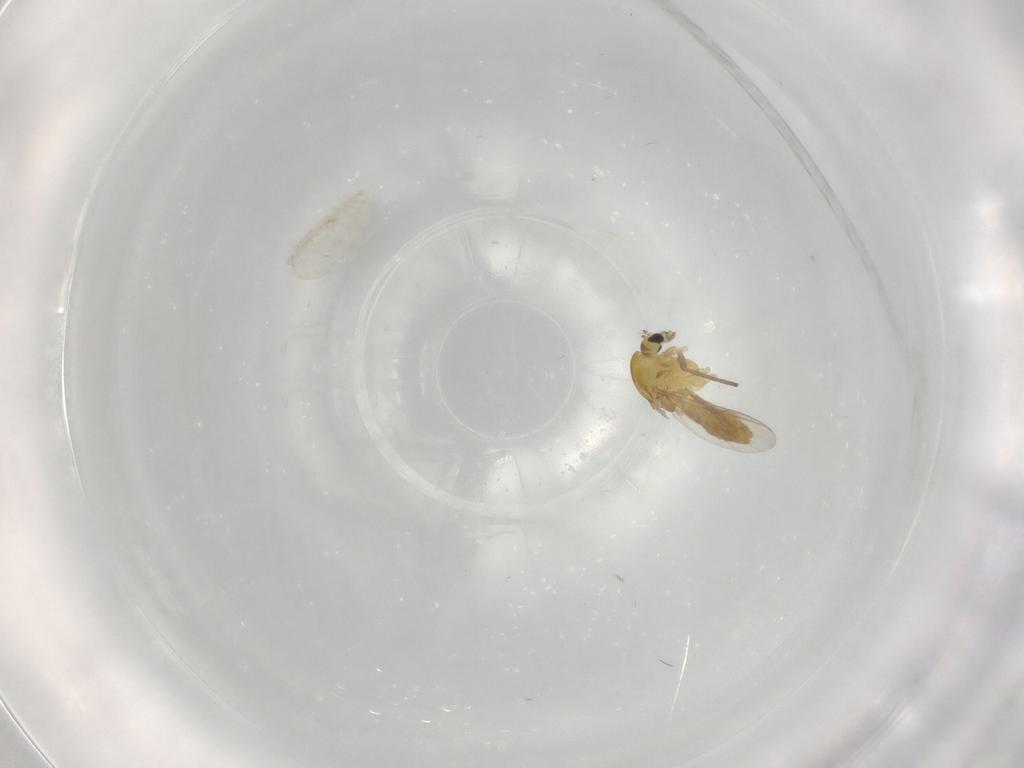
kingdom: Animalia
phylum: Arthropoda
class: Insecta
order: Diptera
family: Chironomidae
